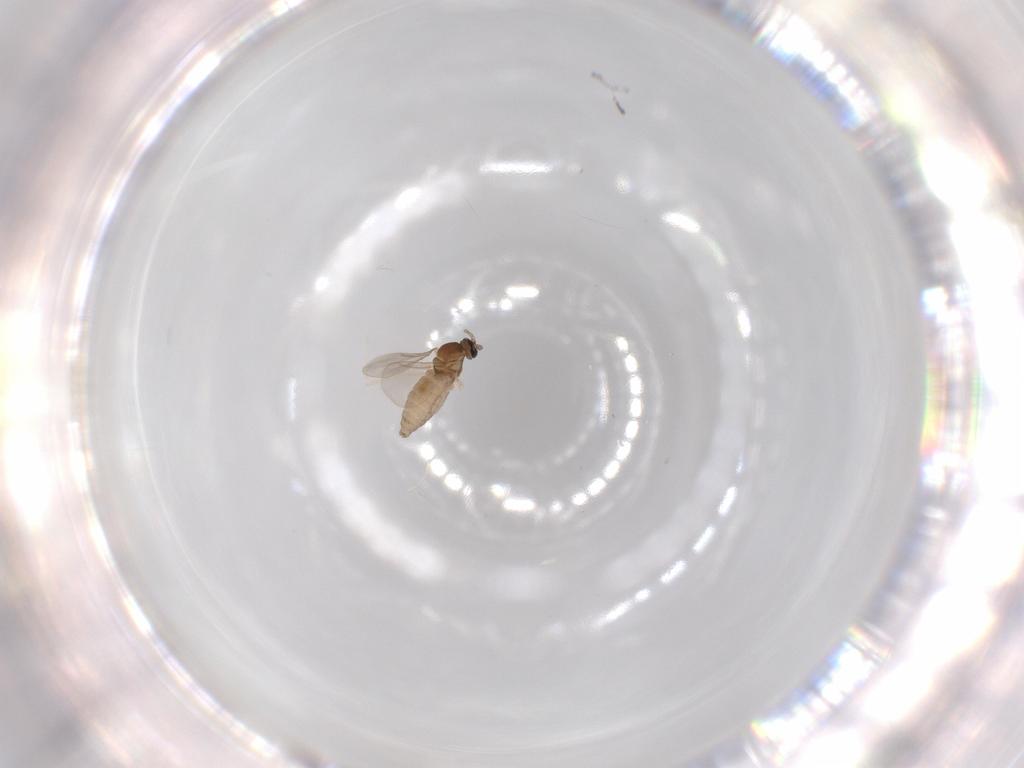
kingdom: Animalia
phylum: Arthropoda
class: Insecta
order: Diptera
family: Cecidomyiidae
